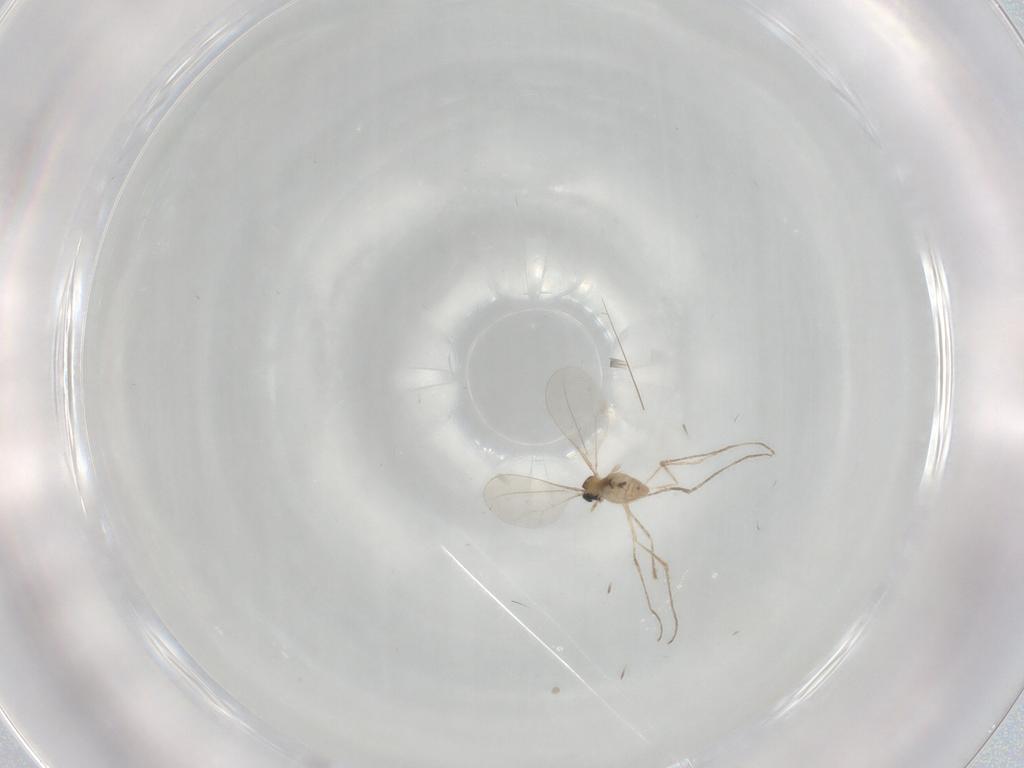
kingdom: Animalia
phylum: Arthropoda
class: Insecta
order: Diptera
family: Cecidomyiidae
